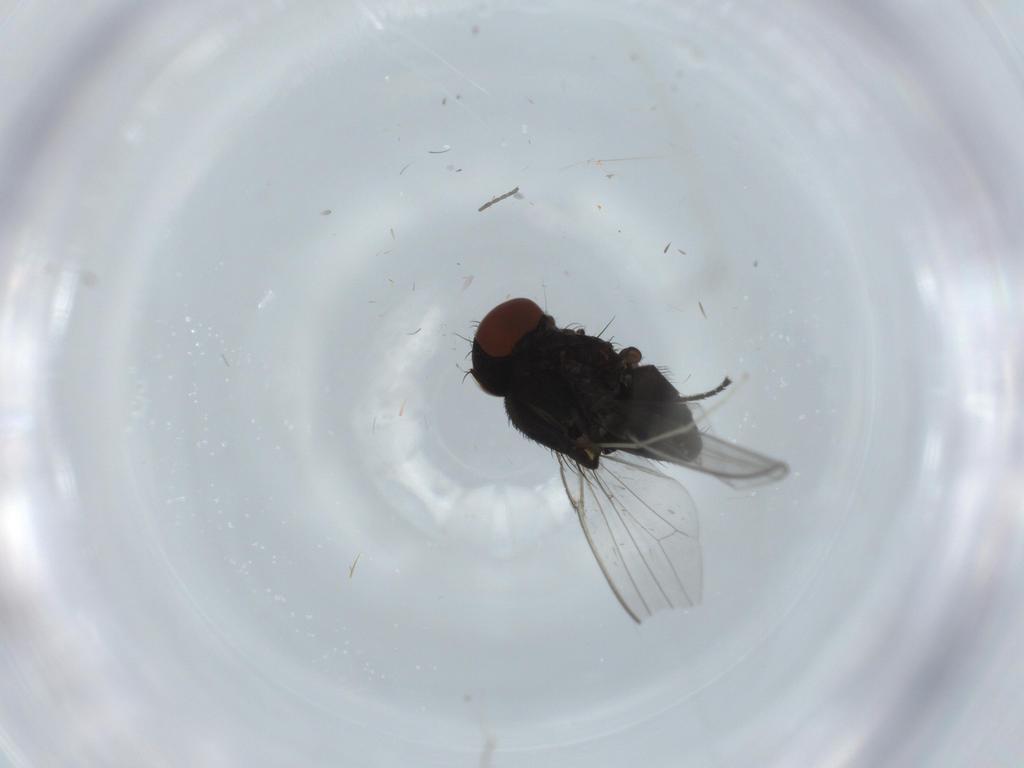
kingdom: Animalia
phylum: Arthropoda
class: Insecta
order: Diptera
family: Milichiidae
